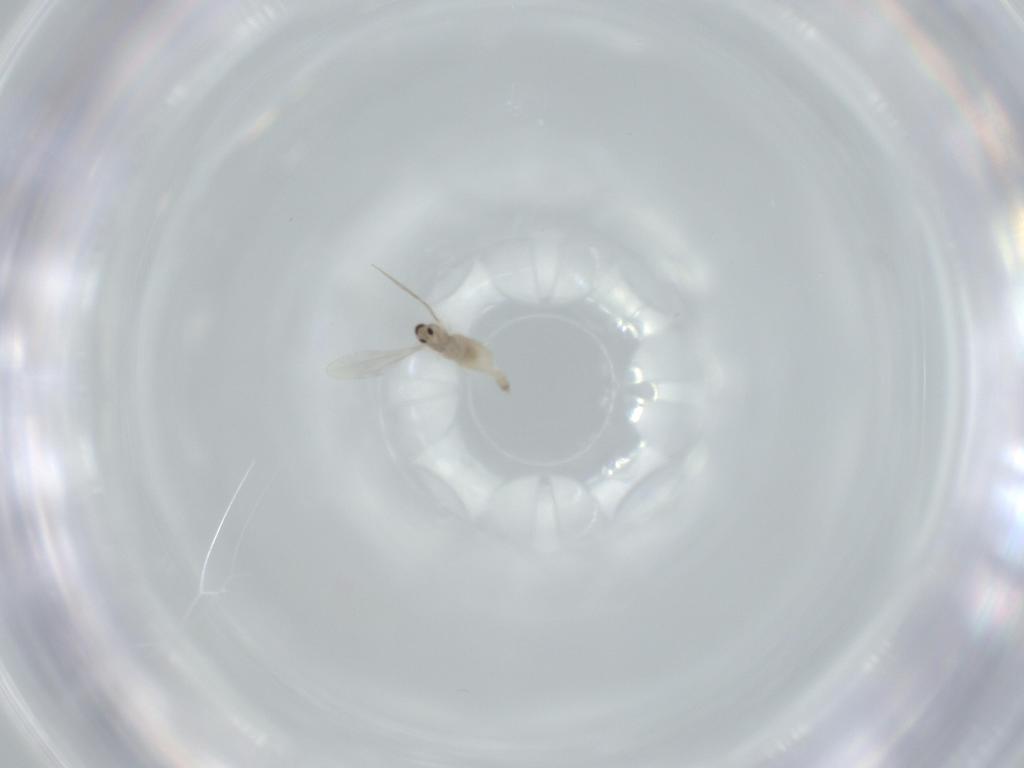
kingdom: Animalia
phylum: Arthropoda
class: Insecta
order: Diptera
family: Cecidomyiidae
